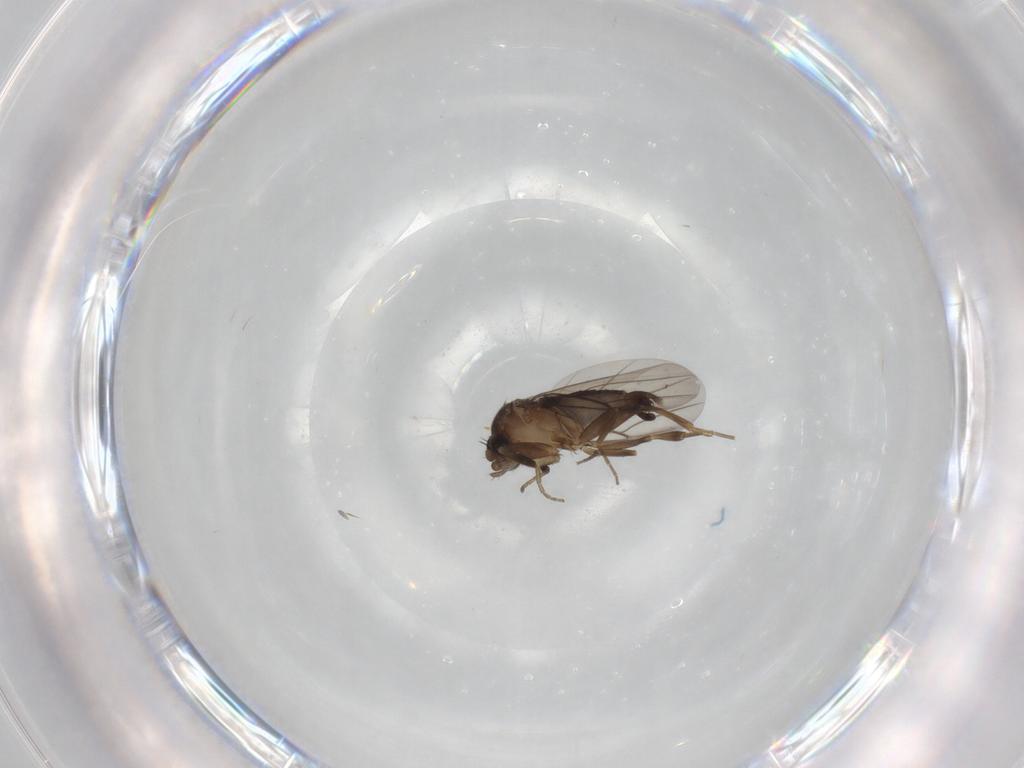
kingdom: Animalia
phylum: Arthropoda
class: Insecta
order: Diptera
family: Phoridae
